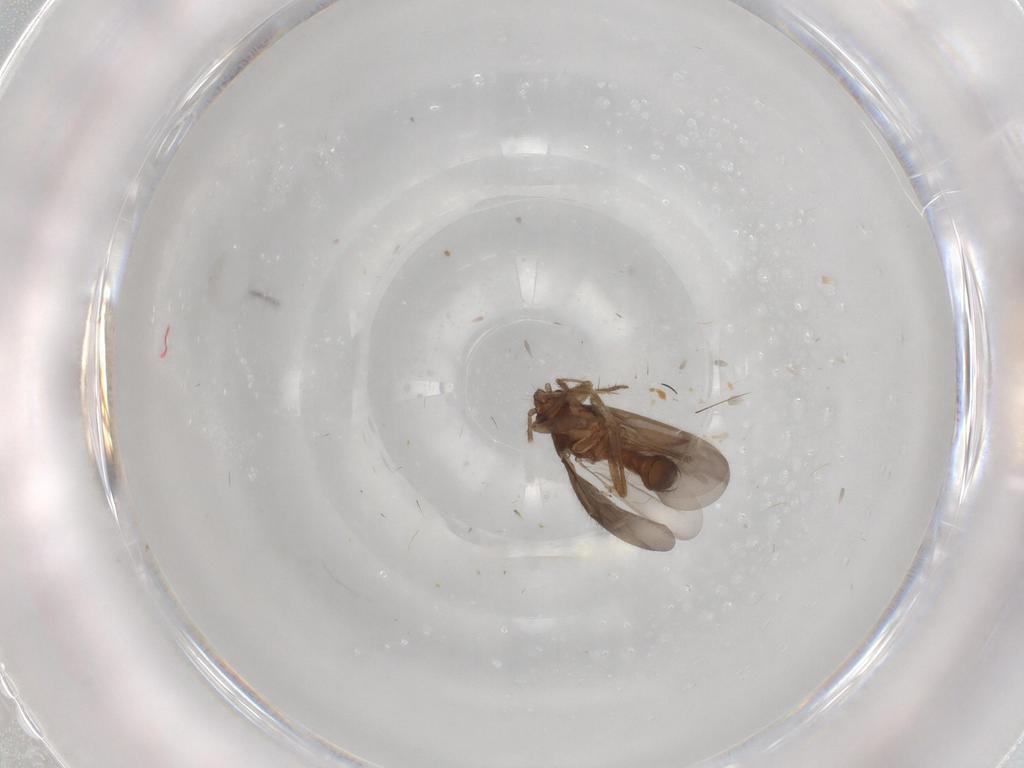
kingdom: Animalia
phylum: Arthropoda
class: Insecta
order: Hemiptera
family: Ceratocombidae
